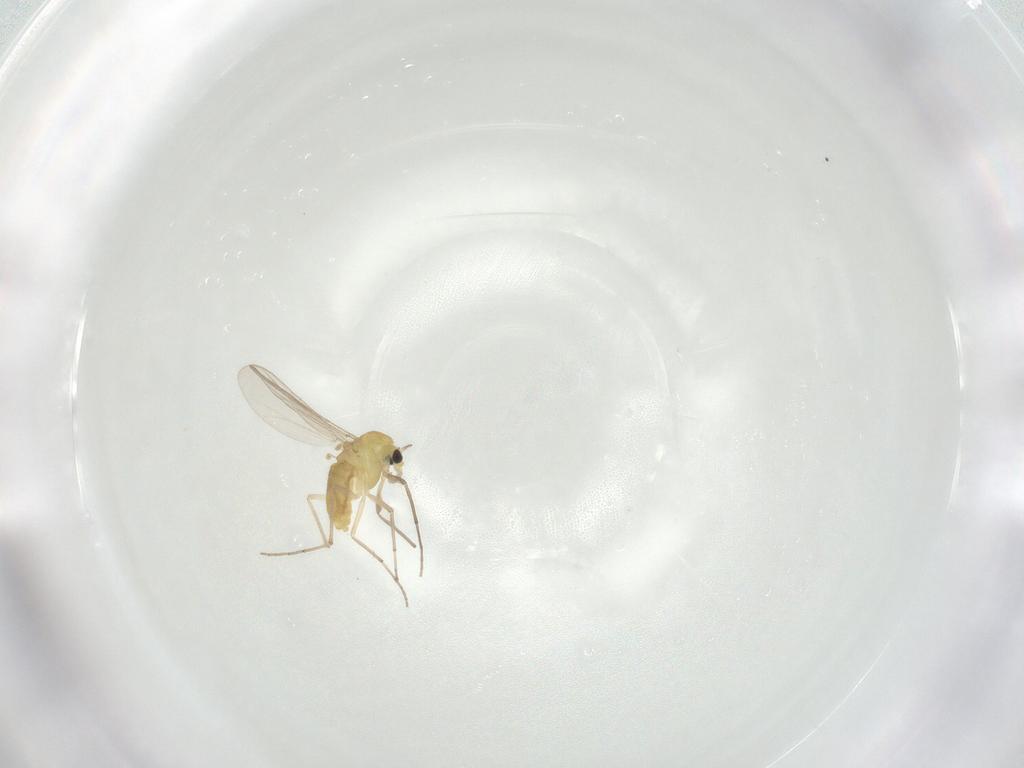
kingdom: Animalia
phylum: Arthropoda
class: Insecta
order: Diptera
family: Chironomidae
